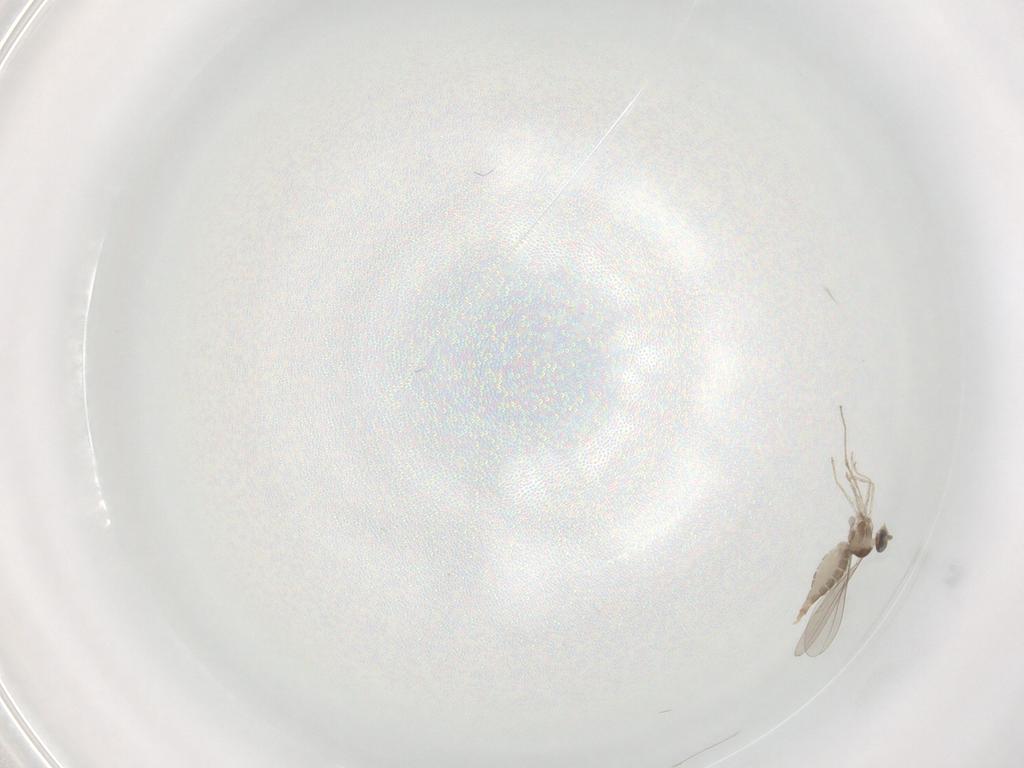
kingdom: Animalia
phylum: Arthropoda
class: Insecta
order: Diptera
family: Cecidomyiidae
